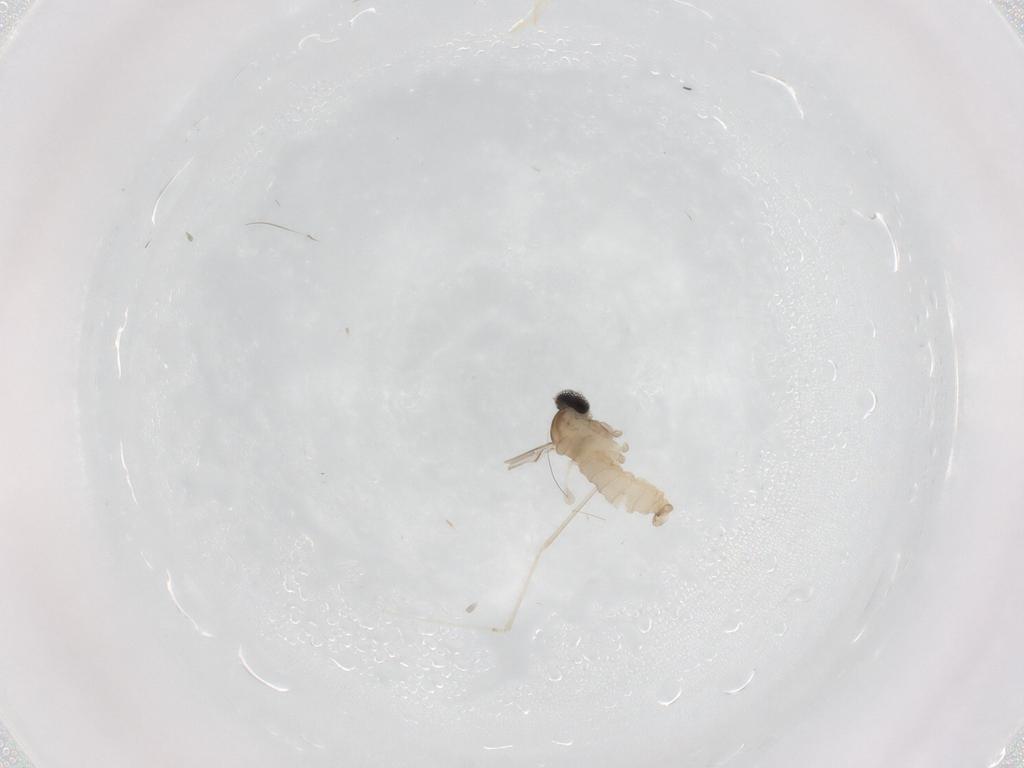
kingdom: Animalia
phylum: Arthropoda
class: Insecta
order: Diptera
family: Cecidomyiidae
